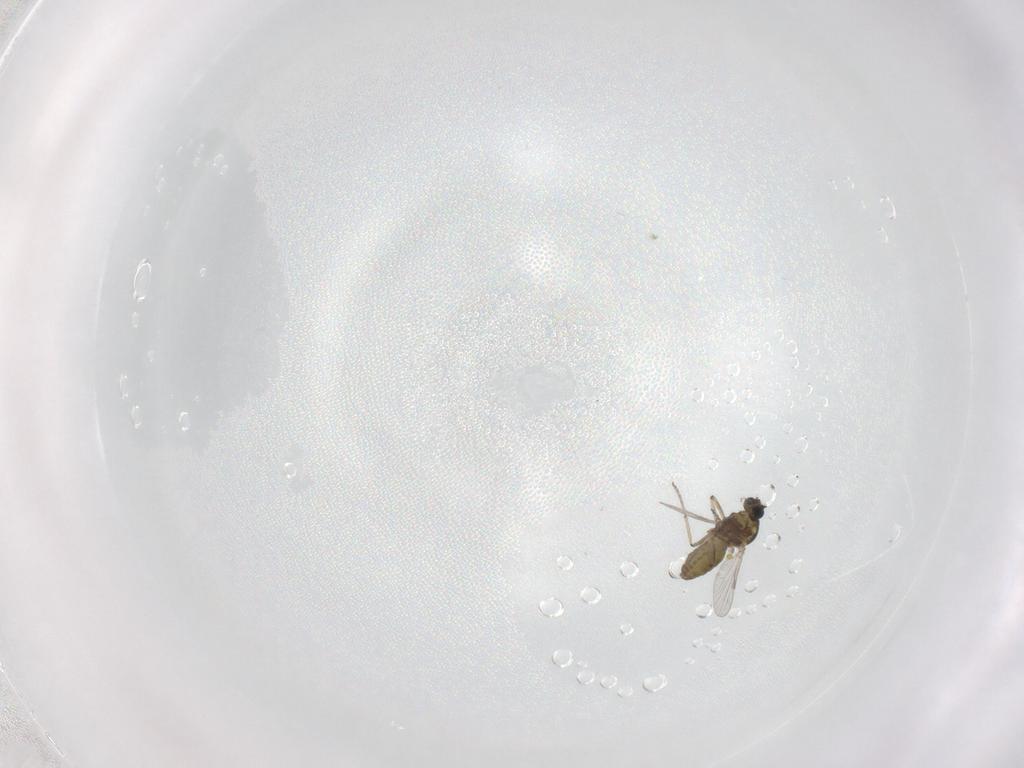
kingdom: Animalia
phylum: Arthropoda
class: Insecta
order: Diptera
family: Ceratopogonidae
